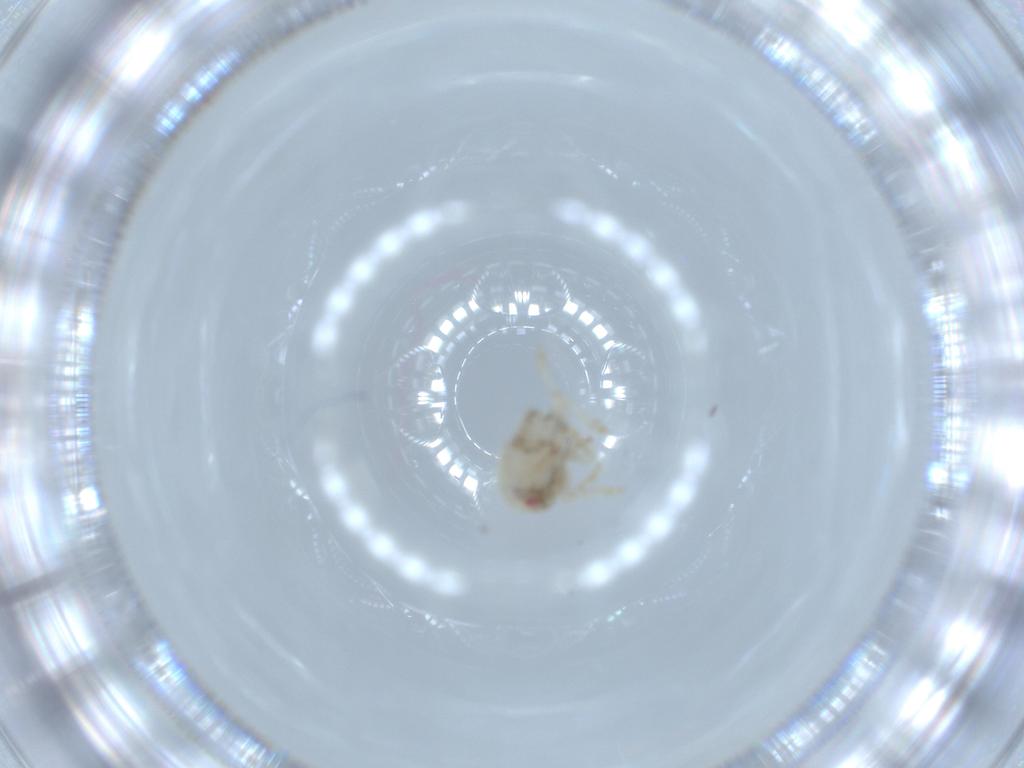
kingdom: Animalia
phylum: Arthropoda
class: Insecta
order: Hemiptera
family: Acanaloniidae
